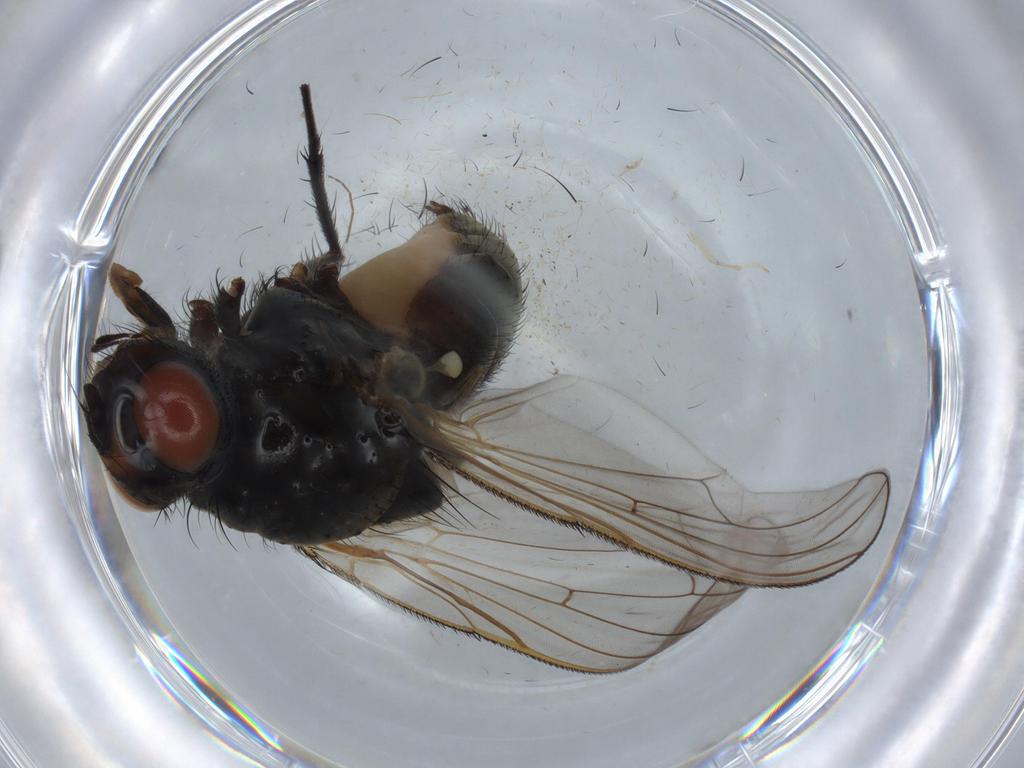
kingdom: Animalia
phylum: Arthropoda
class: Insecta
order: Diptera
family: Anthomyiidae
